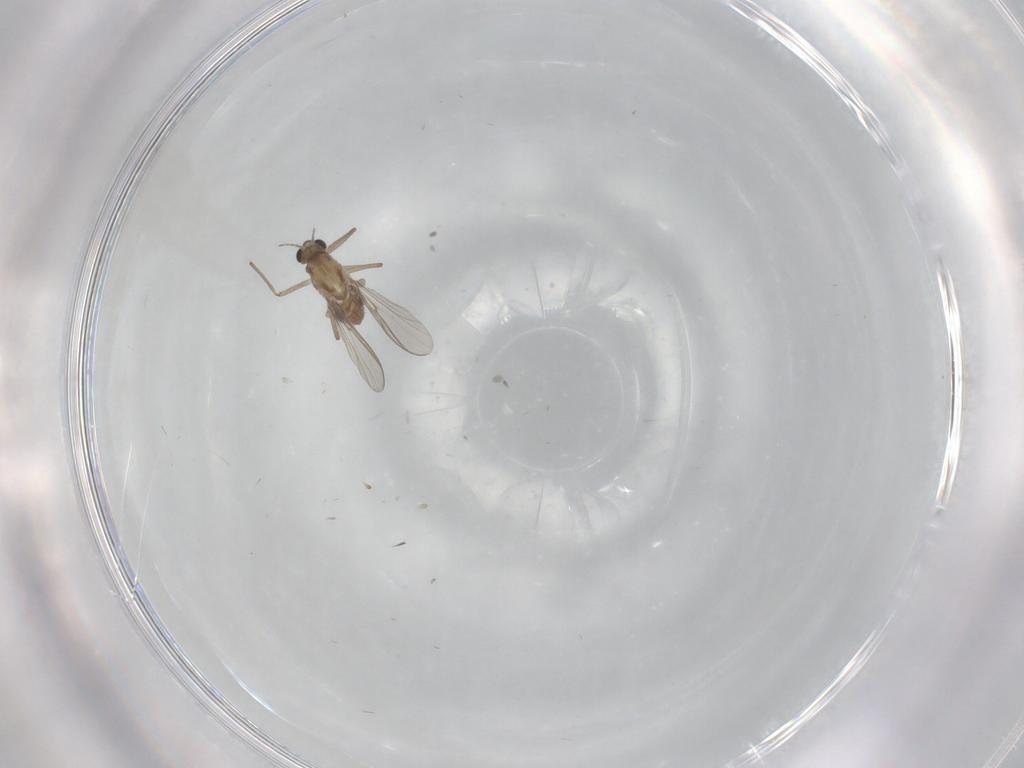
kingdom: Animalia
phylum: Arthropoda
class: Insecta
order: Diptera
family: Chironomidae
